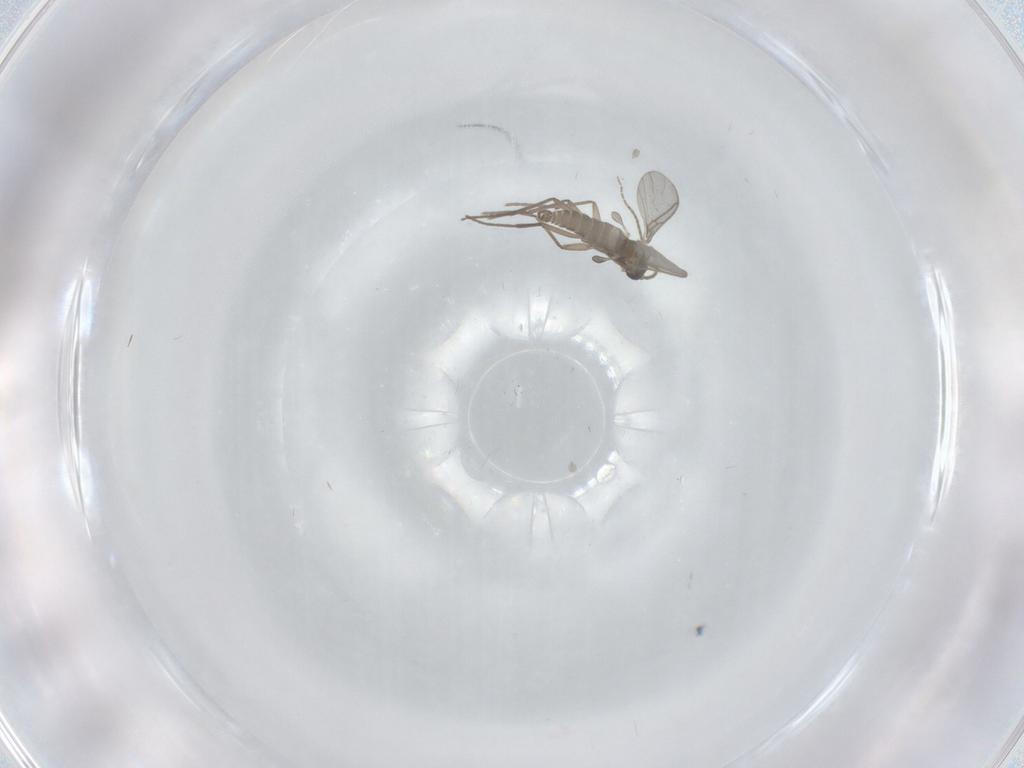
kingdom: Animalia
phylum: Arthropoda
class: Insecta
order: Diptera
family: Sciaridae
